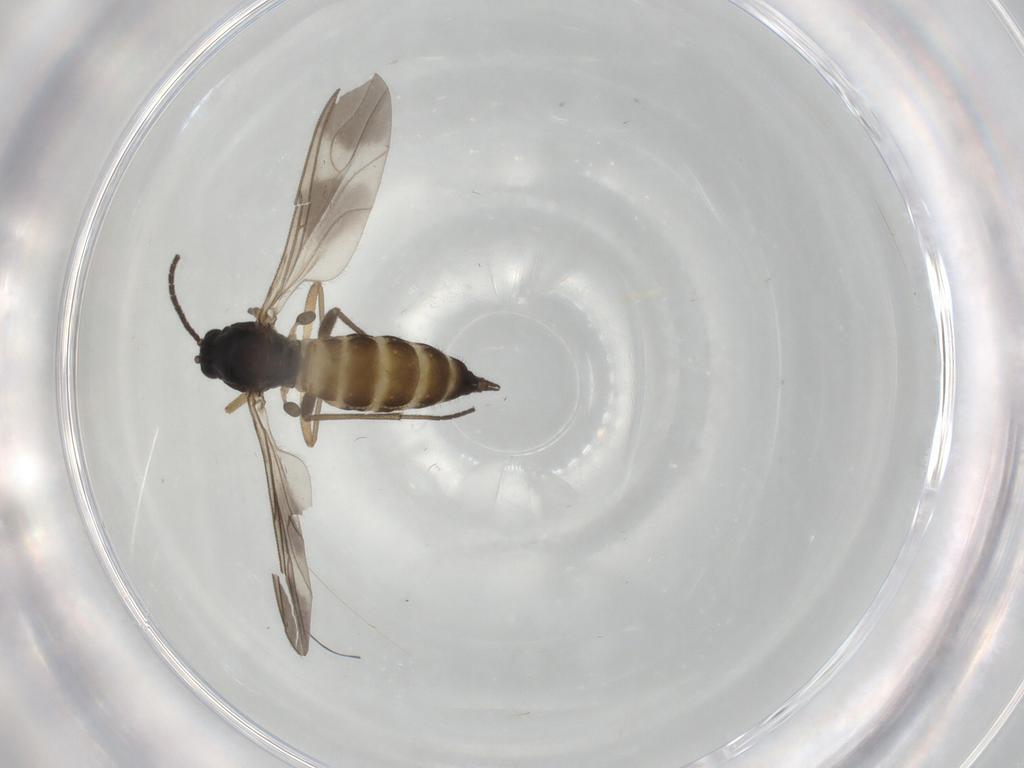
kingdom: Animalia
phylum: Arthropoda
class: Insecta
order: Diptera
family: Sciaridae
